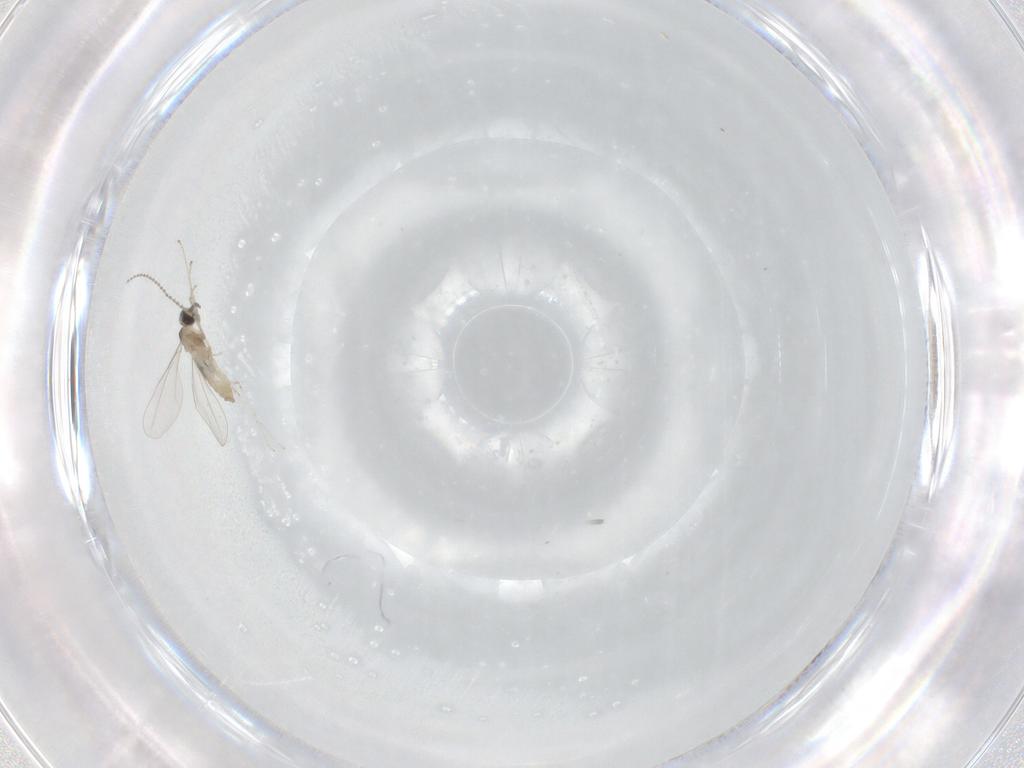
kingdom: Animalia
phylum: Arthropoda
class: Insecta
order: Diptera
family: Cecidomyiidae
